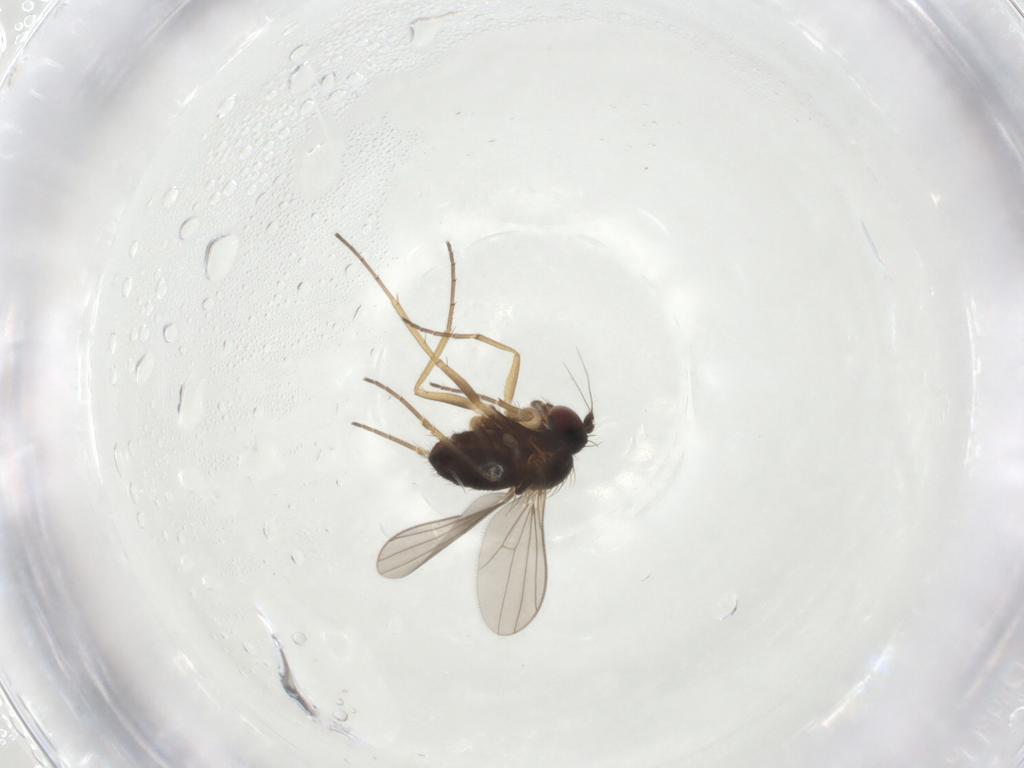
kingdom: Animalia
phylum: Arthropoda
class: Insecta
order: Diptera
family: Dolichopodidae
